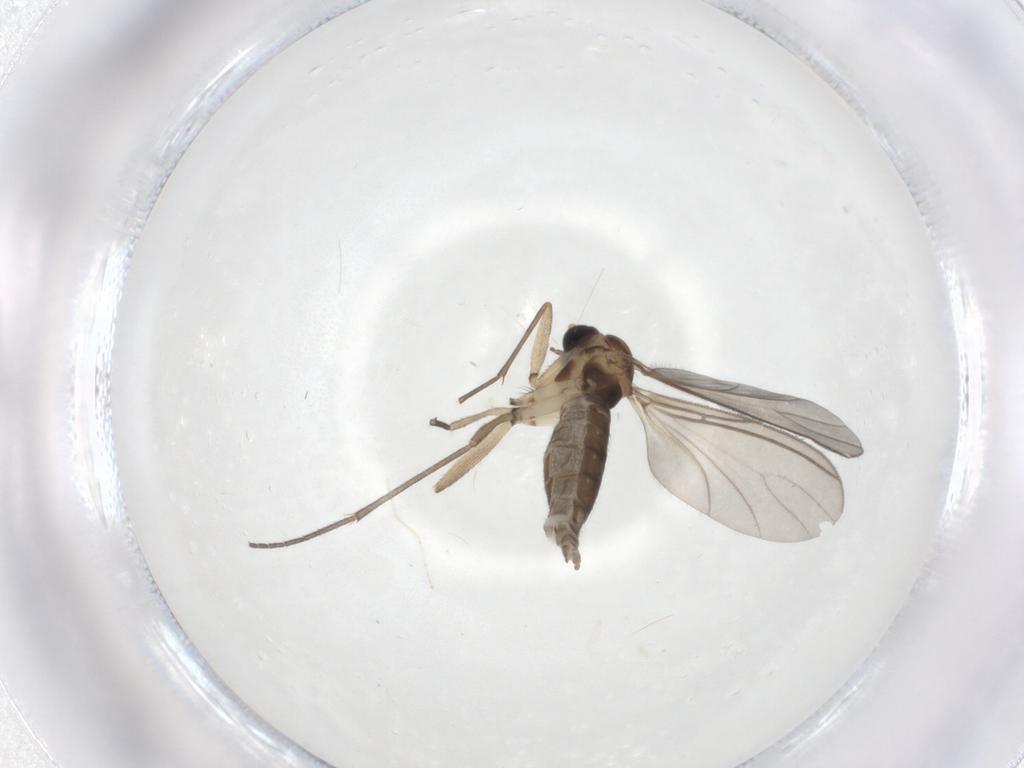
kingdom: Animalia
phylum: Arthropoda
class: Insecta
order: Diptera
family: Sciaridae
